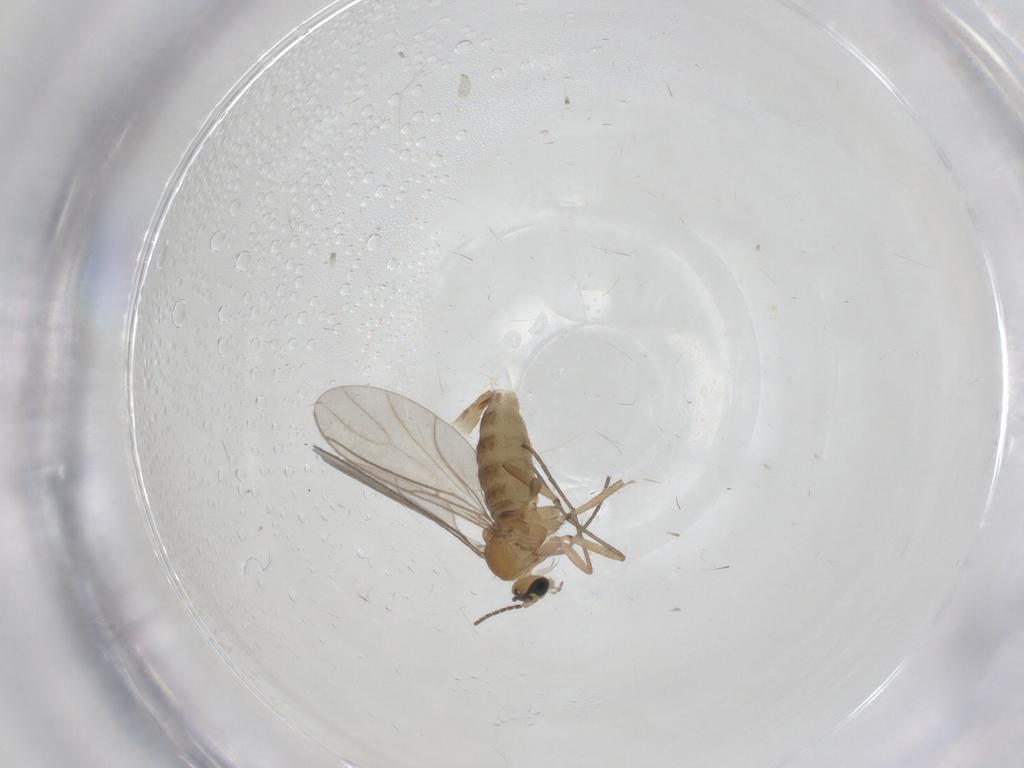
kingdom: Animalia
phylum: Arthropoda
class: Insecta
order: Diptera
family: Sciaridae
